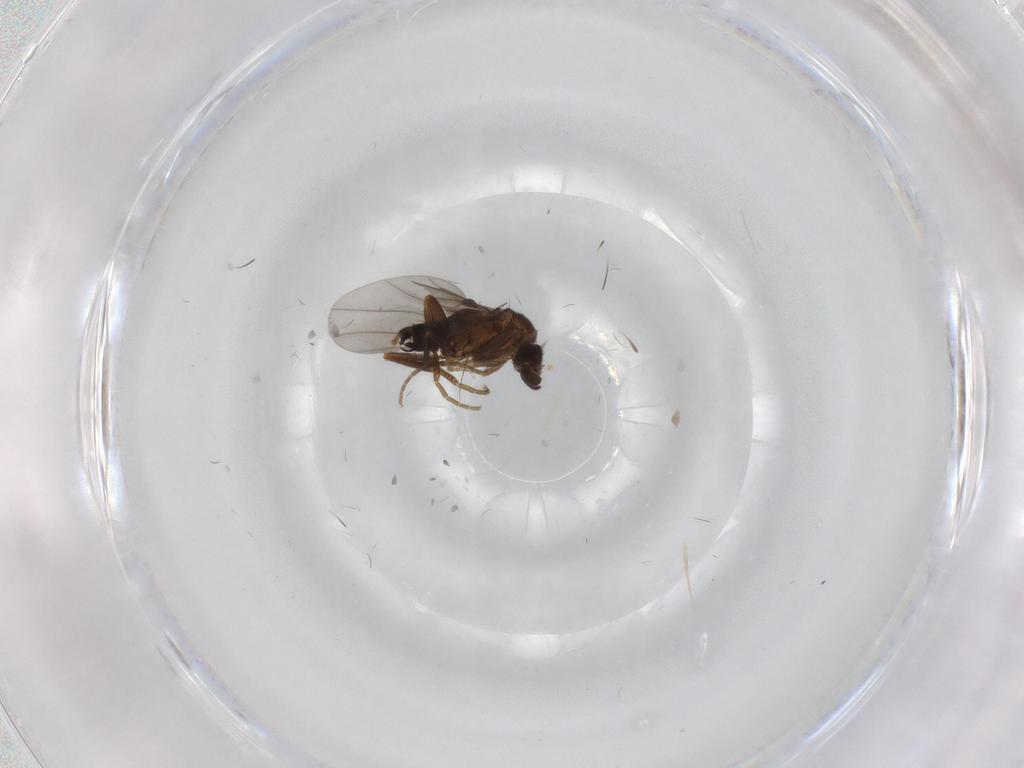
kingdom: Animalia
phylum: Arthropoda
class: Insecta
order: Diptera
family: Phoridae
